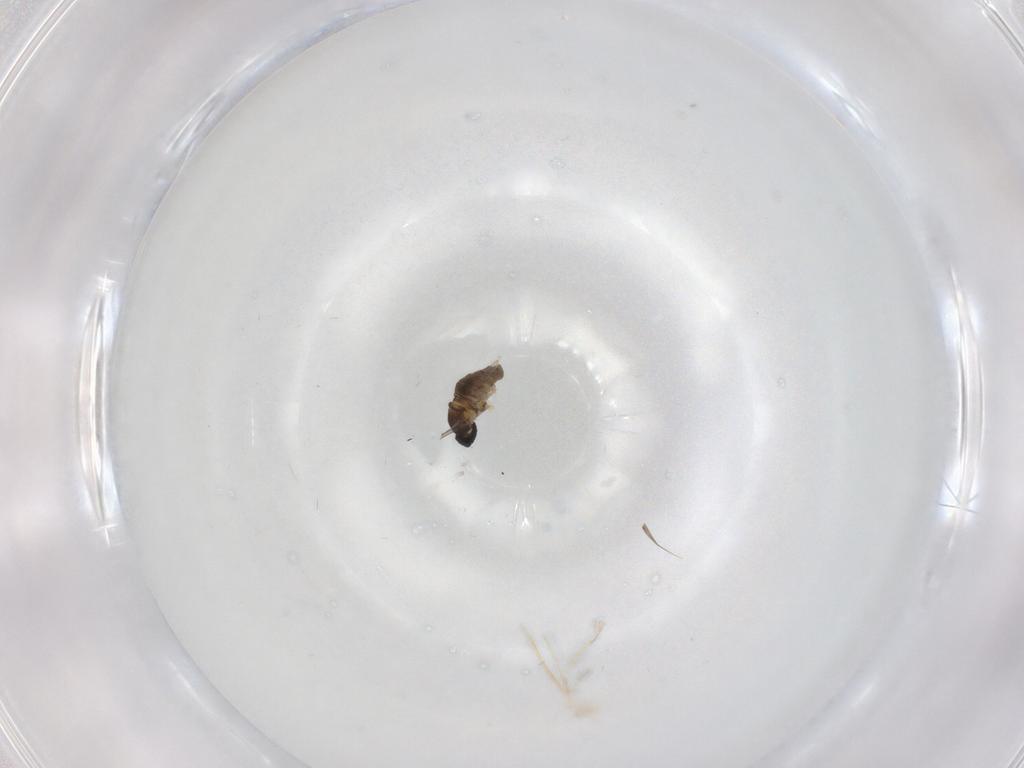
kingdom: Animalia
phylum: Arthropoda
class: Insecta
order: Diptera
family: Cecidomyiidae
